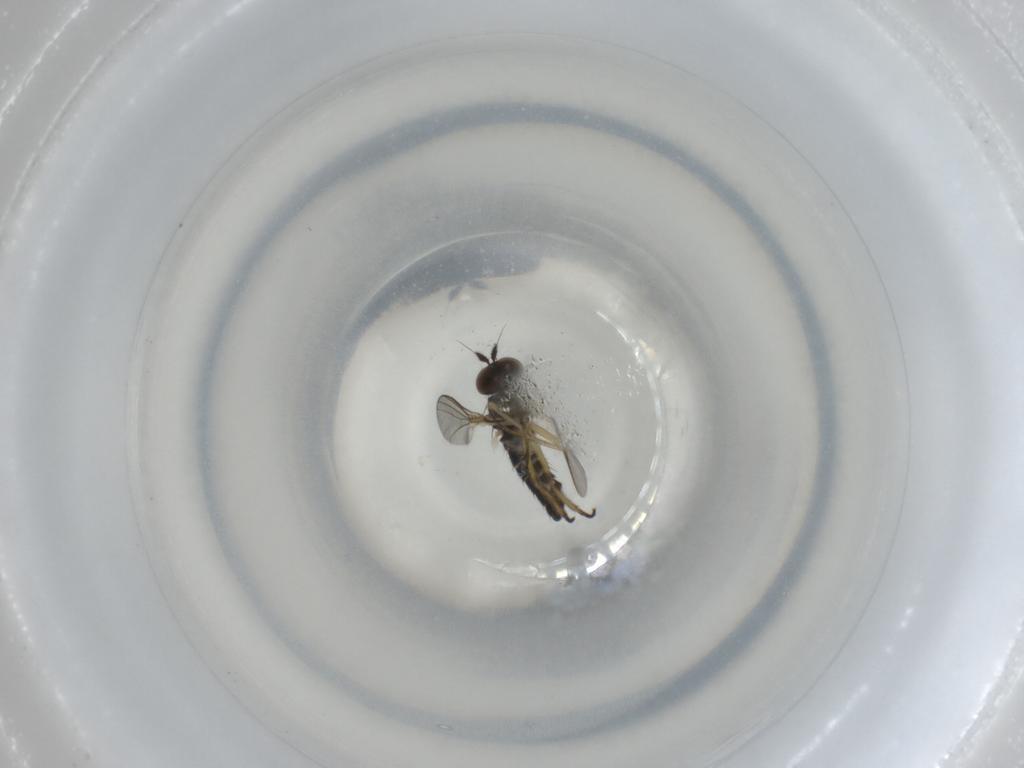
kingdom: Animalia
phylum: Arthropoda
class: Insecta
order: Diptera
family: Dolichopodidae
